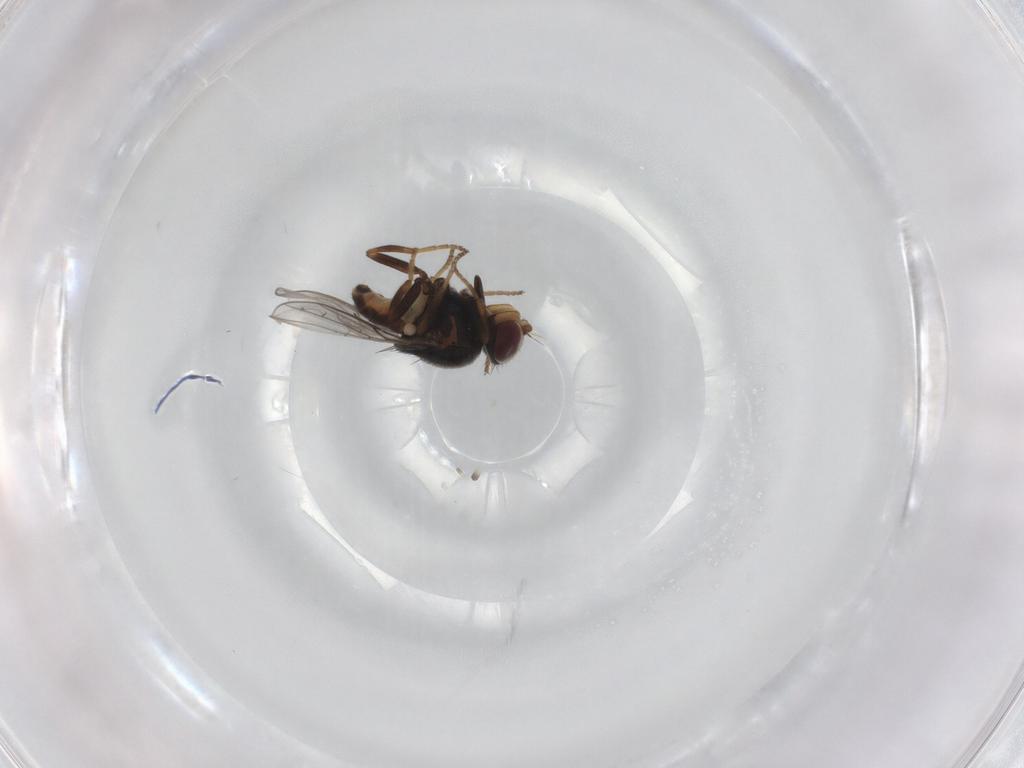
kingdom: Animalia
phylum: Arthropoda
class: Insecta
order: Diptera
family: Chloropidae
